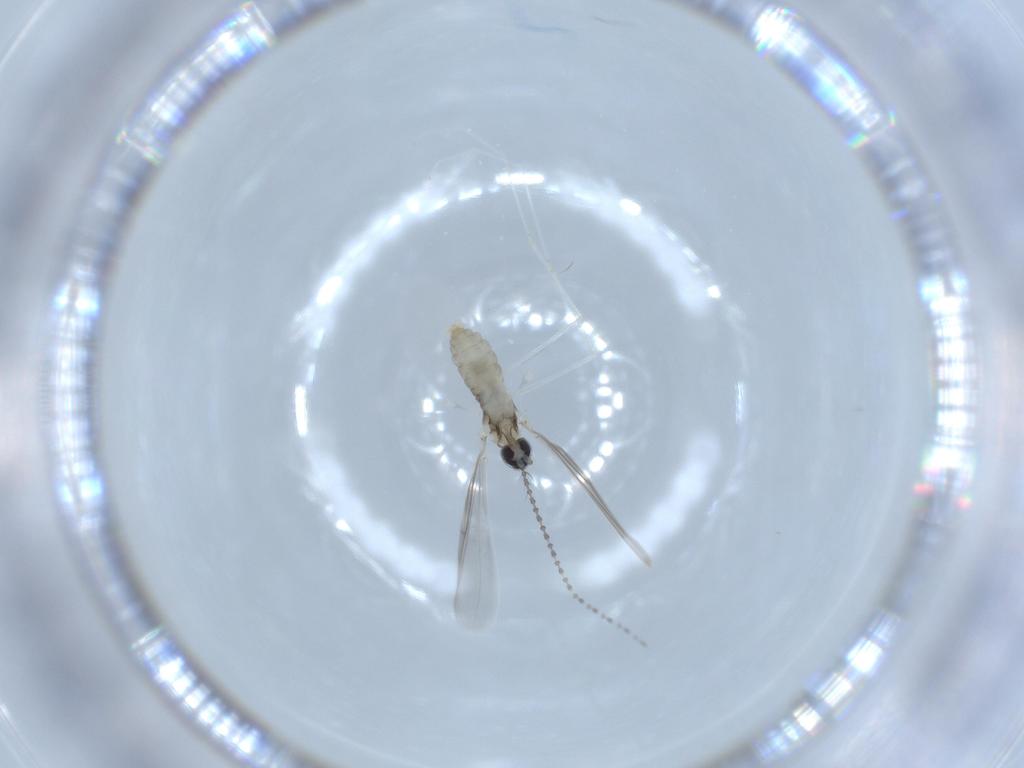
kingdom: Animalia
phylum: Arthropoda
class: Insecta
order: Diptera
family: Cecidomyiidae
